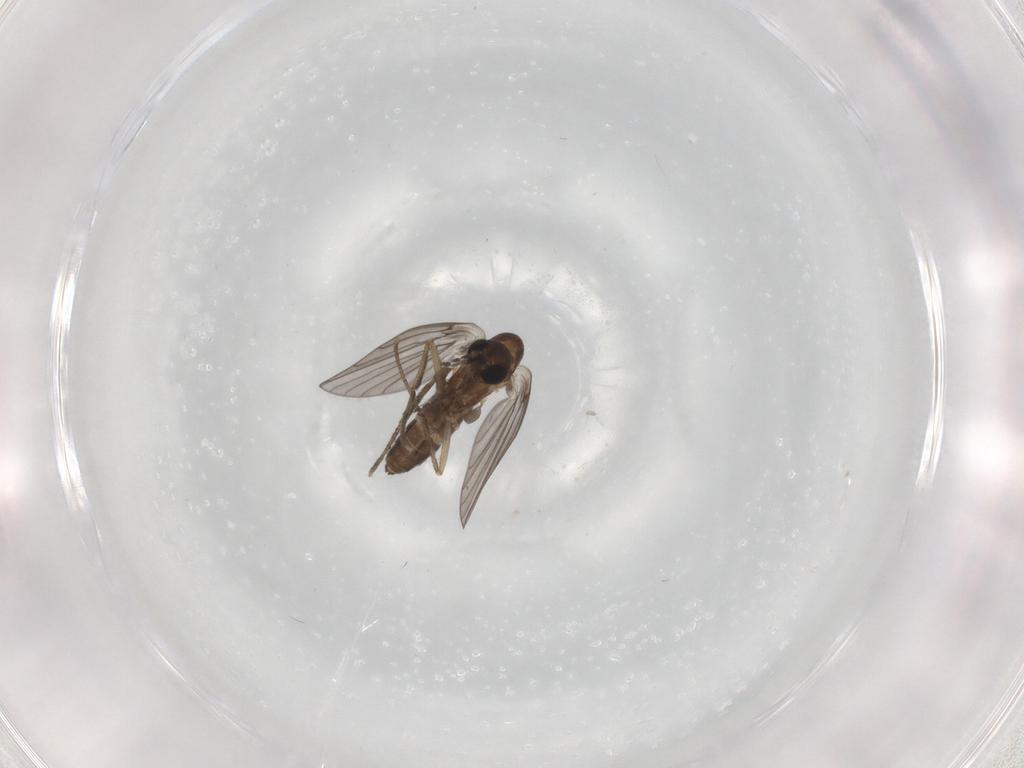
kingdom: Animalia
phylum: Arthropoda
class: Insecta
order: Diptera
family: Psychodidae
